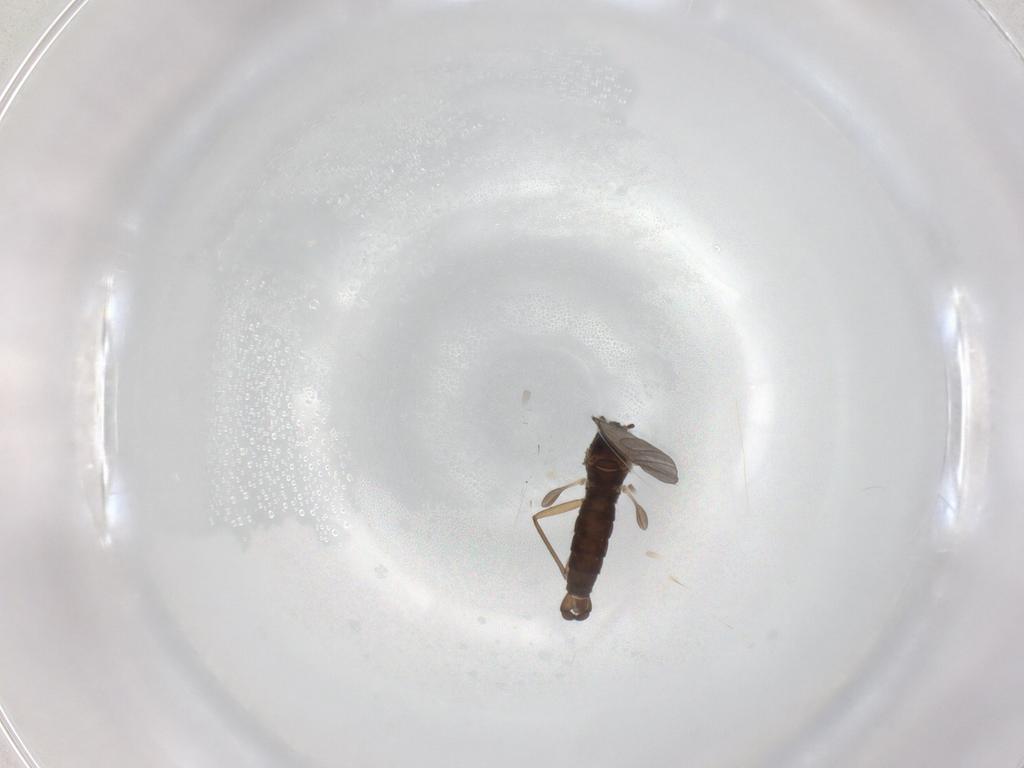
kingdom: Animalia
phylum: Arthropoda
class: Insecta
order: Diptera
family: Sciaridae
